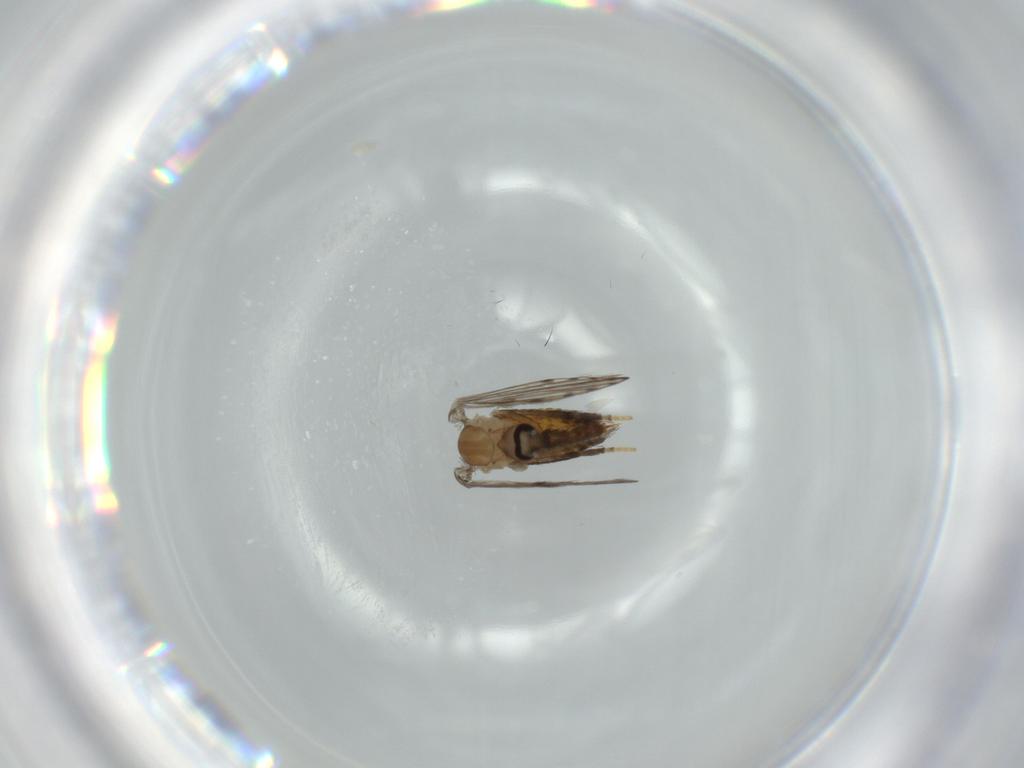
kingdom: Animalia
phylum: Arthropoda
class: Insecta
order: Diptera
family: Psychodidae
